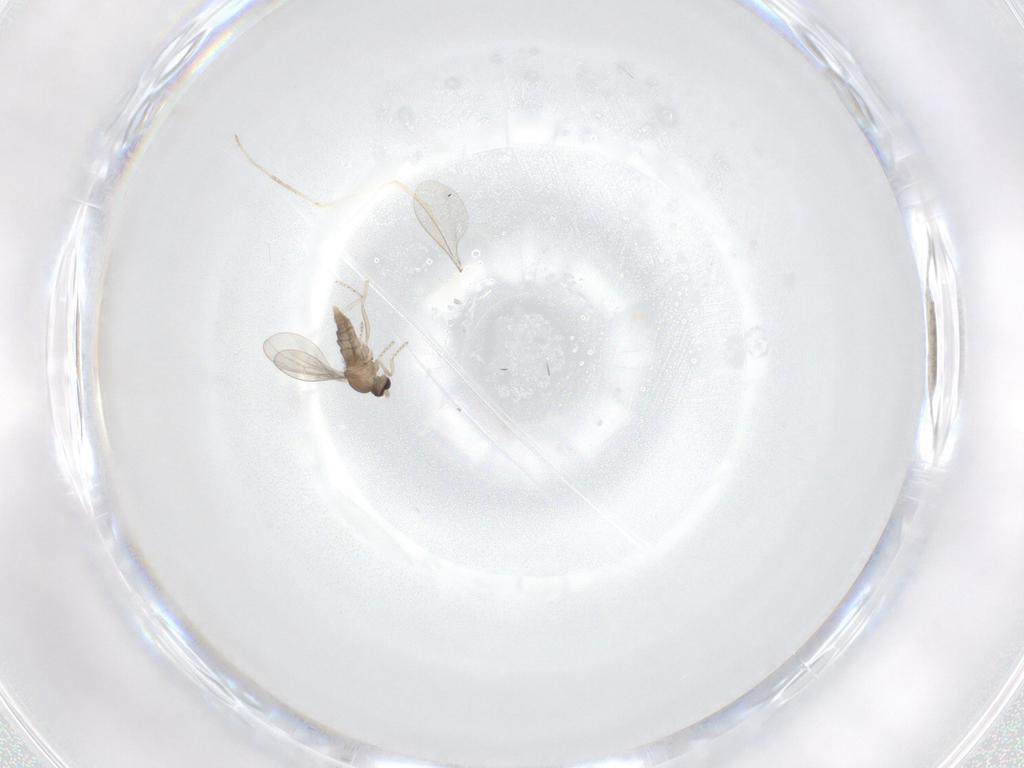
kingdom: Animalia
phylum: Arthropoda
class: Insecta
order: Diptera
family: Cecidomyiidae
